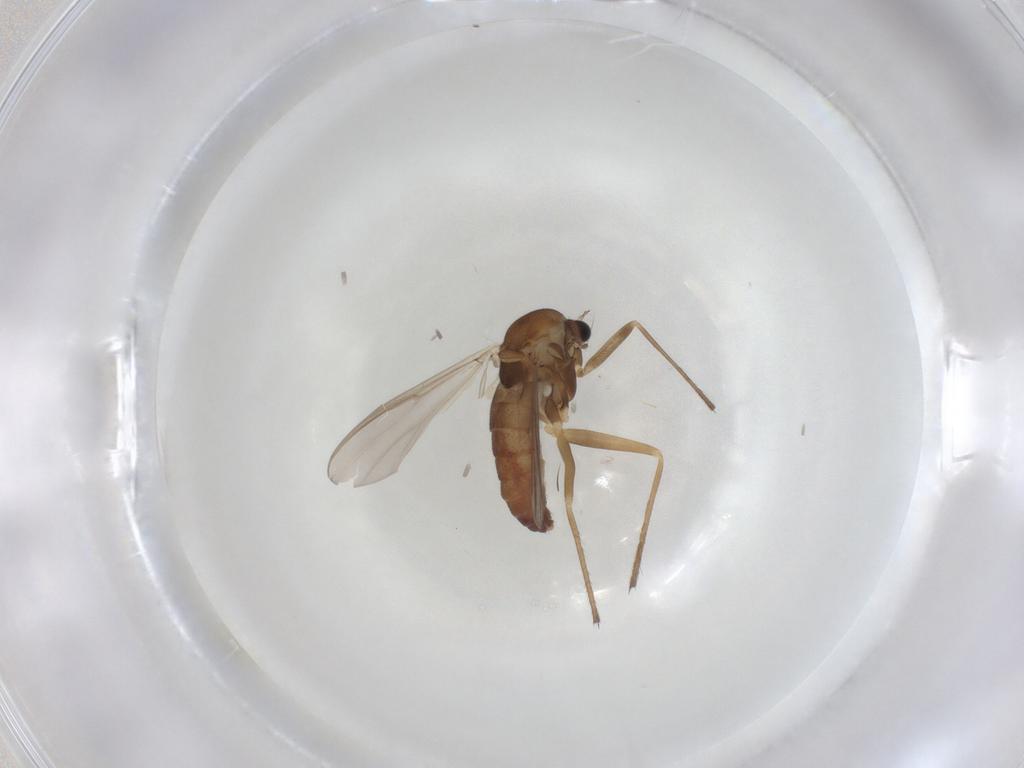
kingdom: Animalia
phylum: Arthropoda
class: Insecta
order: Diptera
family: Chironomidae
